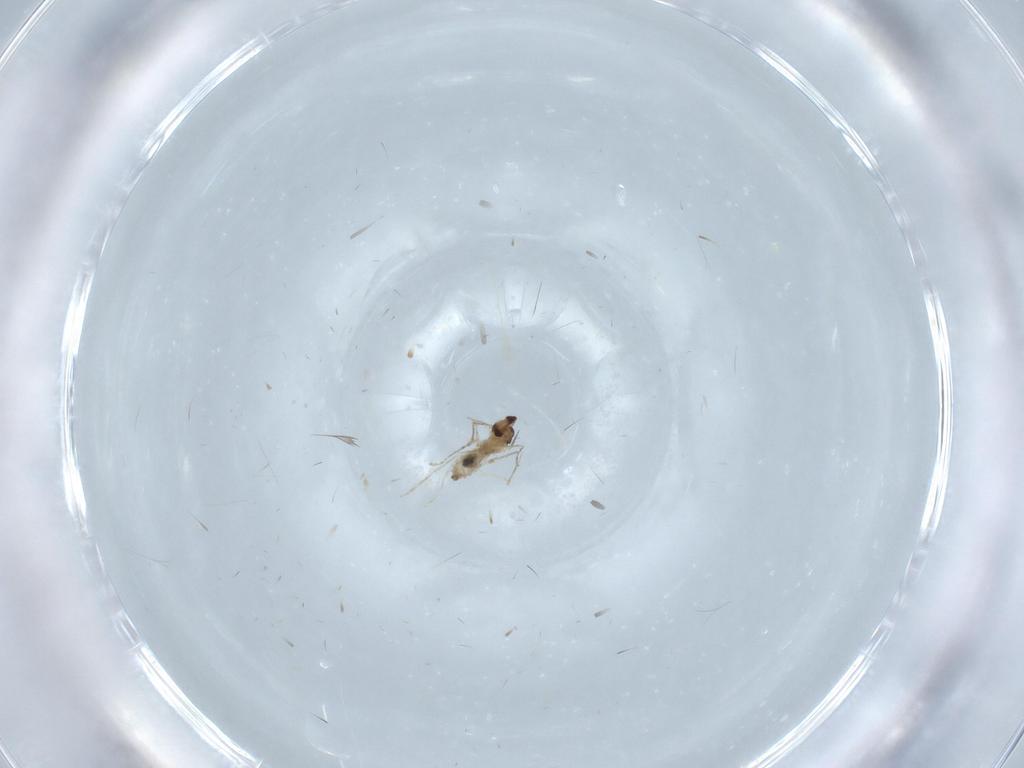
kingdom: Animalia
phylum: Arthropoda
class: Insecta
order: Diptera
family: Cecidomyiidae
